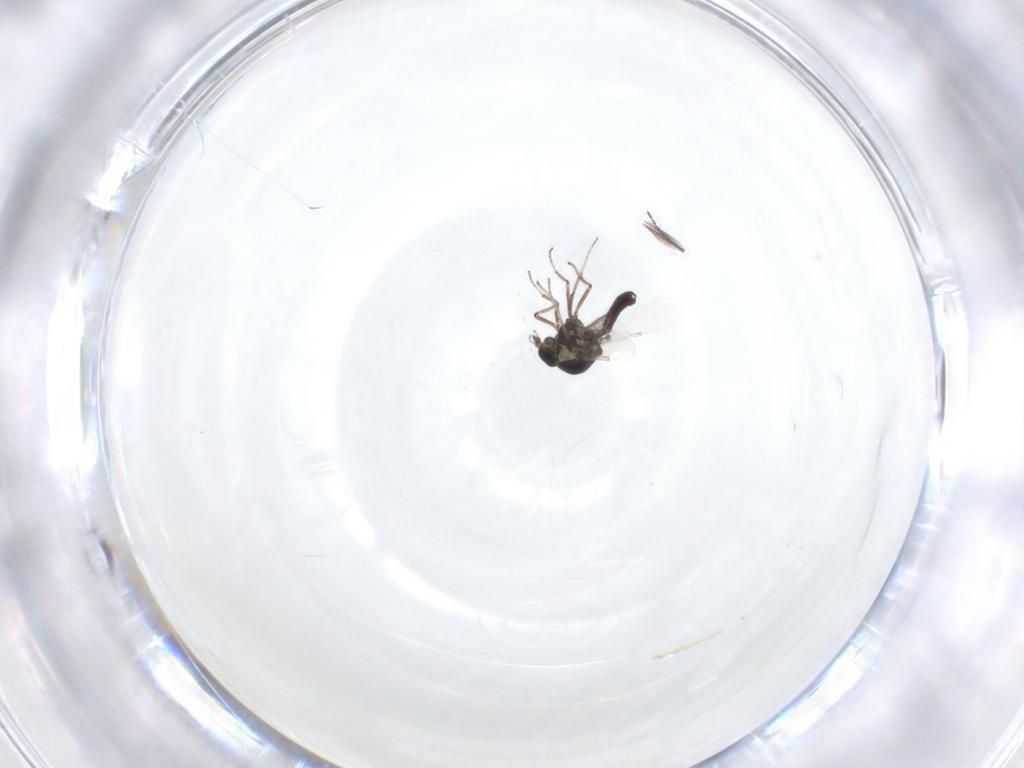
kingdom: Animalia
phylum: Arthropoda
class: Insecta
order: Diptera
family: Ceratopogonidae
